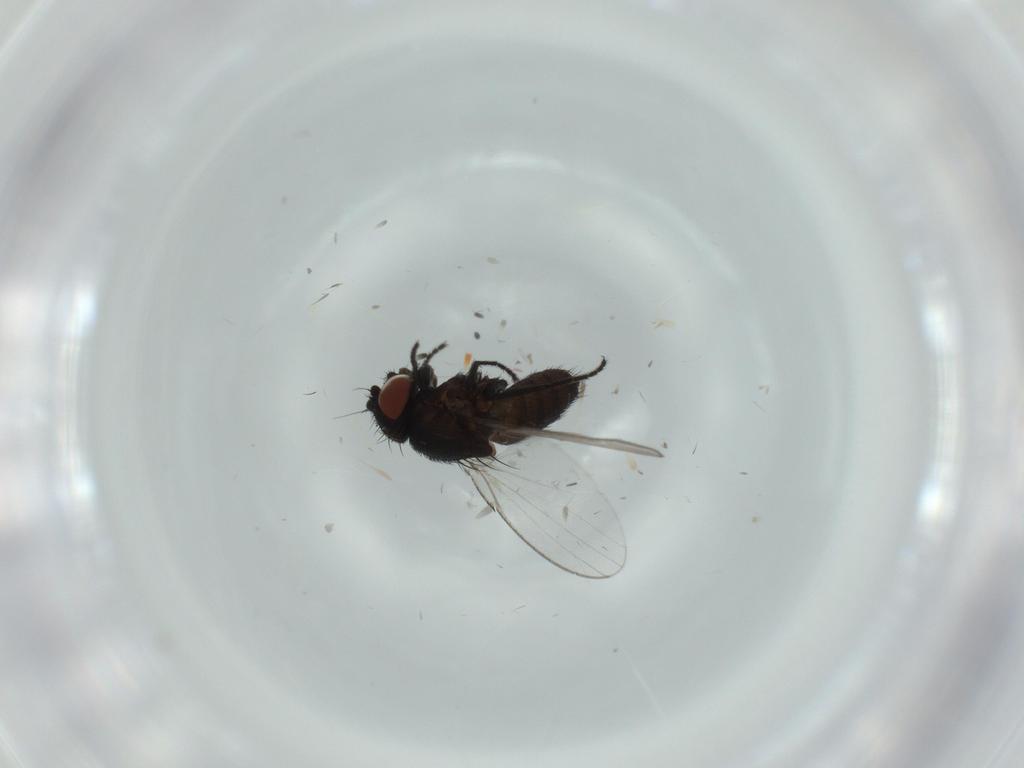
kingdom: Animalia
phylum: Arthropoda
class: Insecta
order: Diptera
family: Milichiidae
